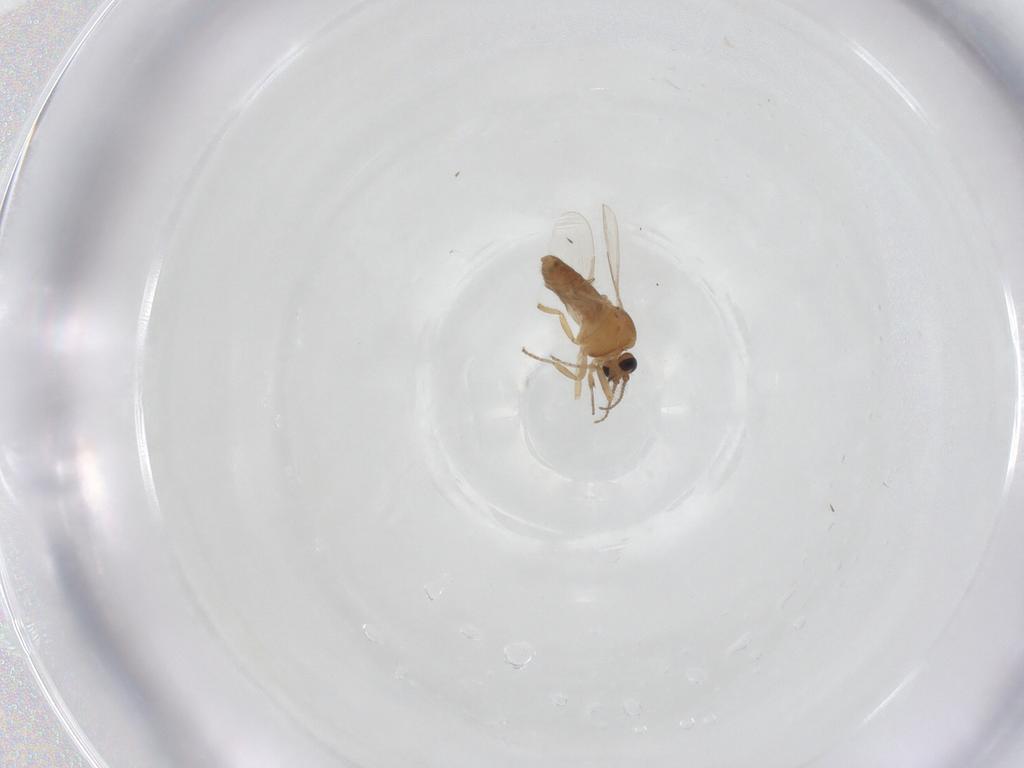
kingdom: Animalia
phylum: Arthropoda
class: Insecta
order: Diptera
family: Ceratopogonidae
